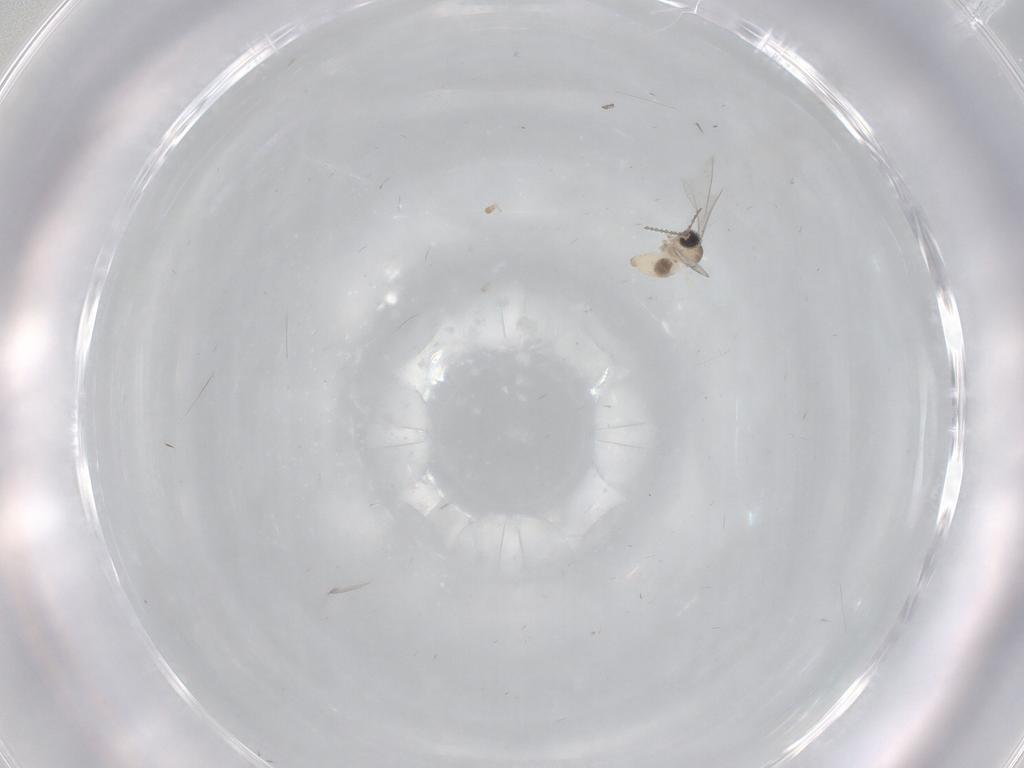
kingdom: Animalia
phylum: Arthropoda
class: Insecta
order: Diptera
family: Cecidomyiidae
